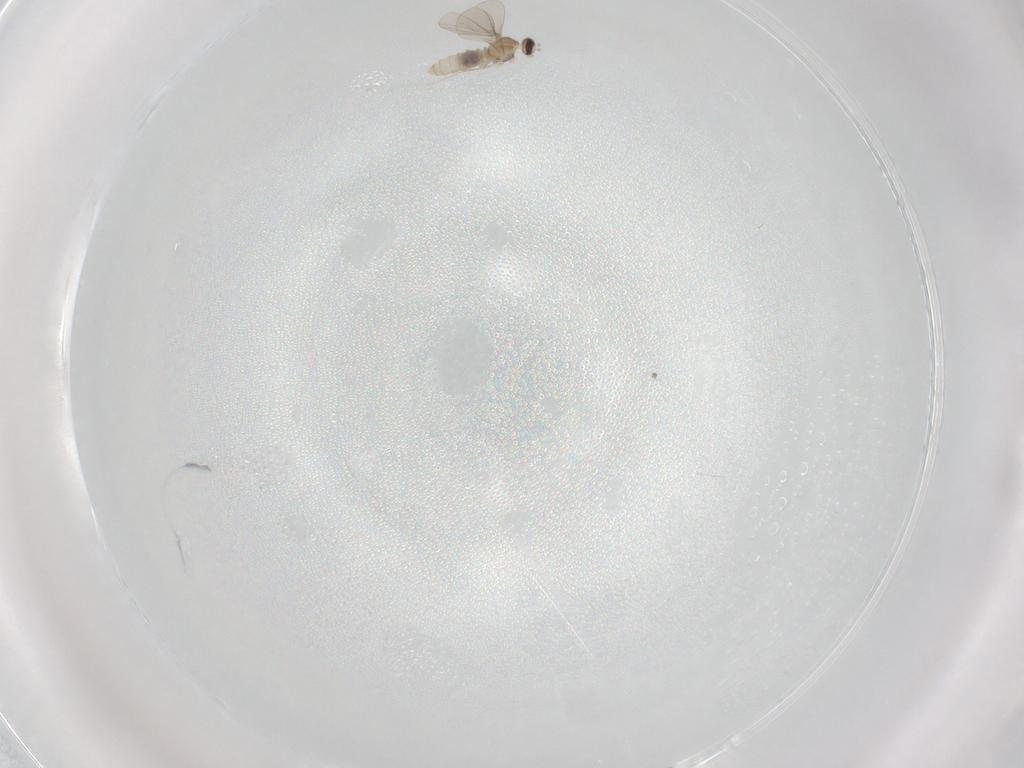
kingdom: Animalia
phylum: Arthropoda
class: Insecta
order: Diptera
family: Cecidomyiidae
